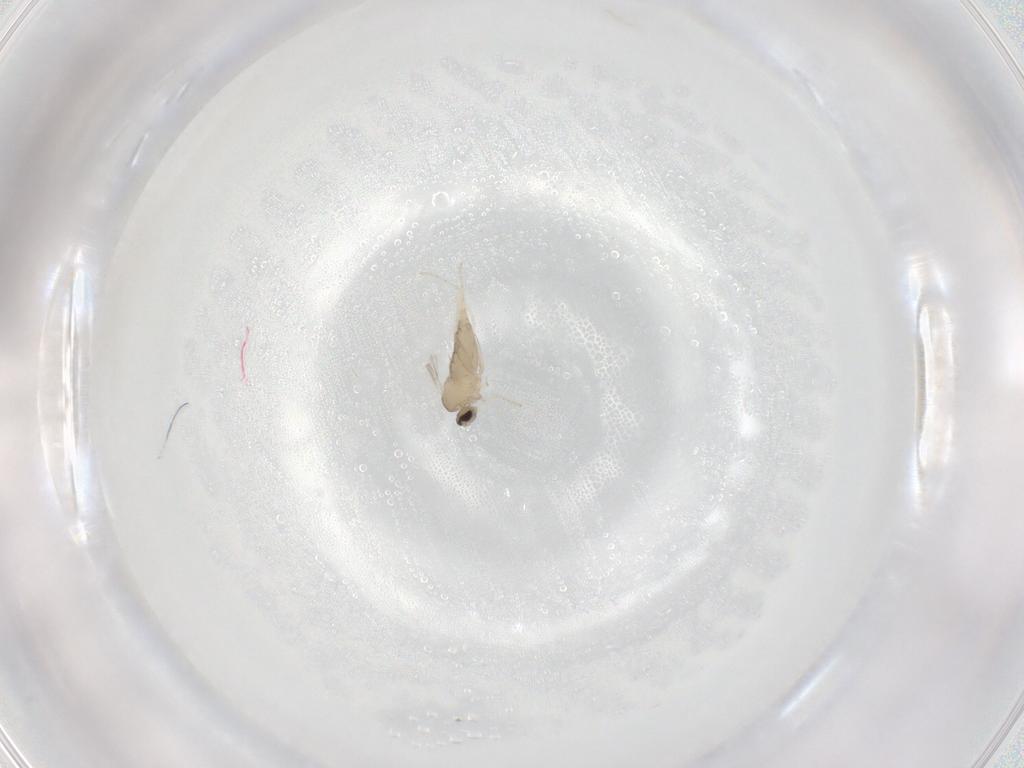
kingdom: Animalia
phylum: Arthropoda
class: Insecta
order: Diptera
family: Cecidomyiidae
